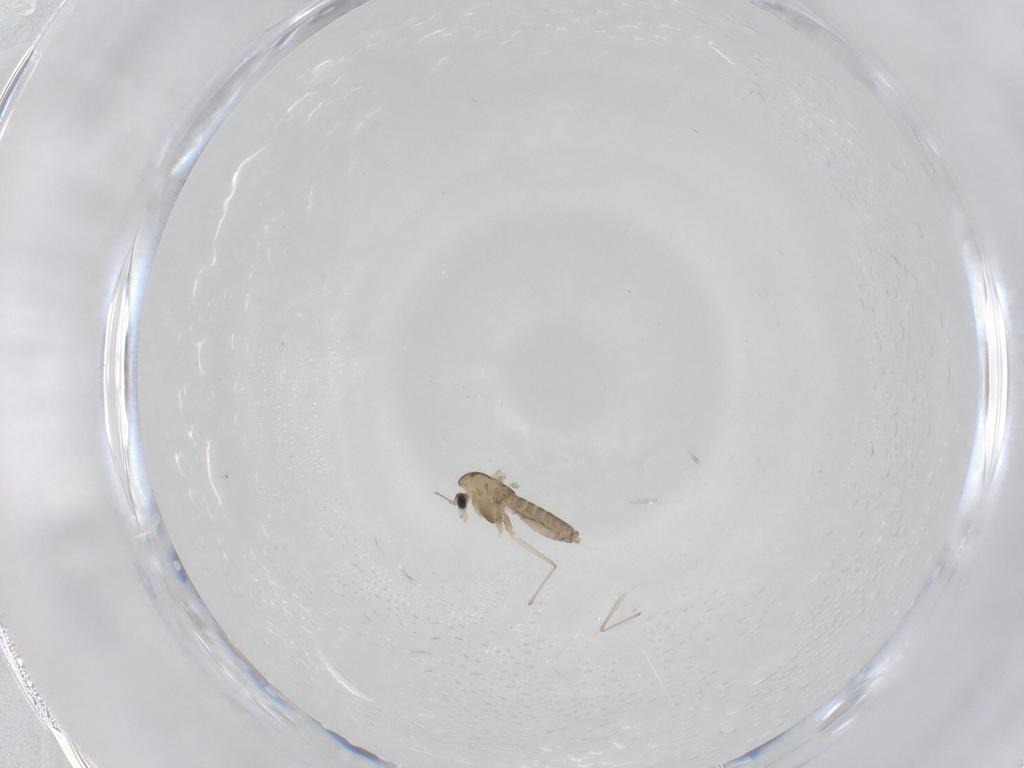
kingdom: Animalia
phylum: Arthropoda
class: Insecta
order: Diptera
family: Chironomidae
